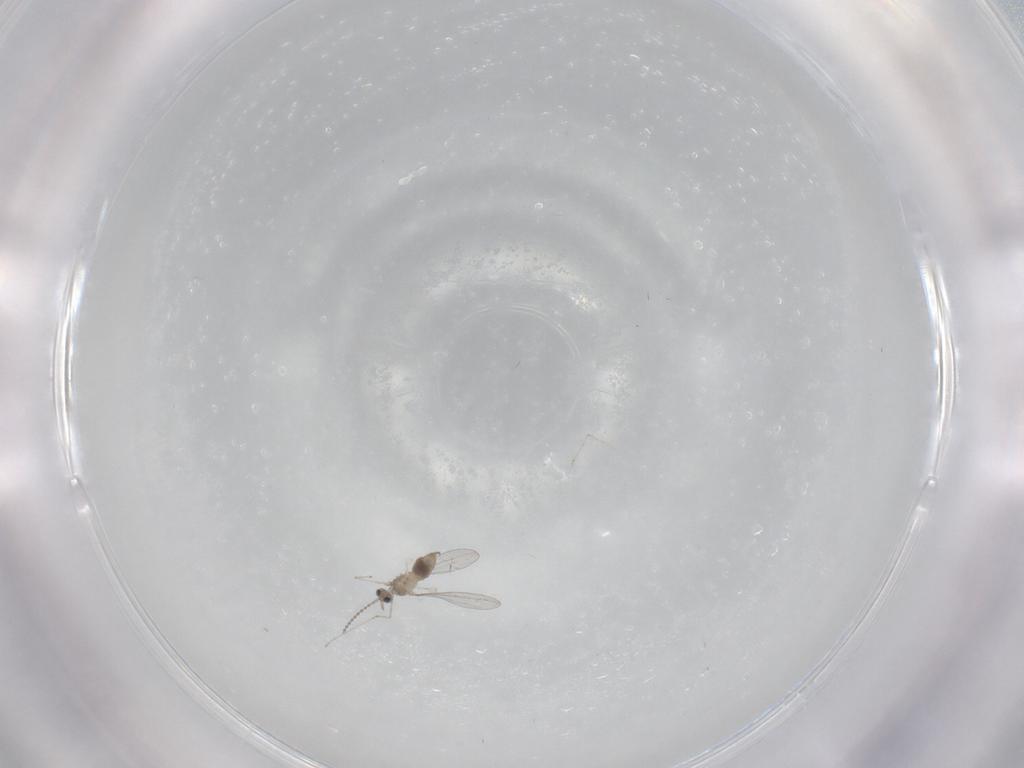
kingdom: Animalia
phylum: Arthropoda
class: Insecta
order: Diptera
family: Cecidomyiidae
